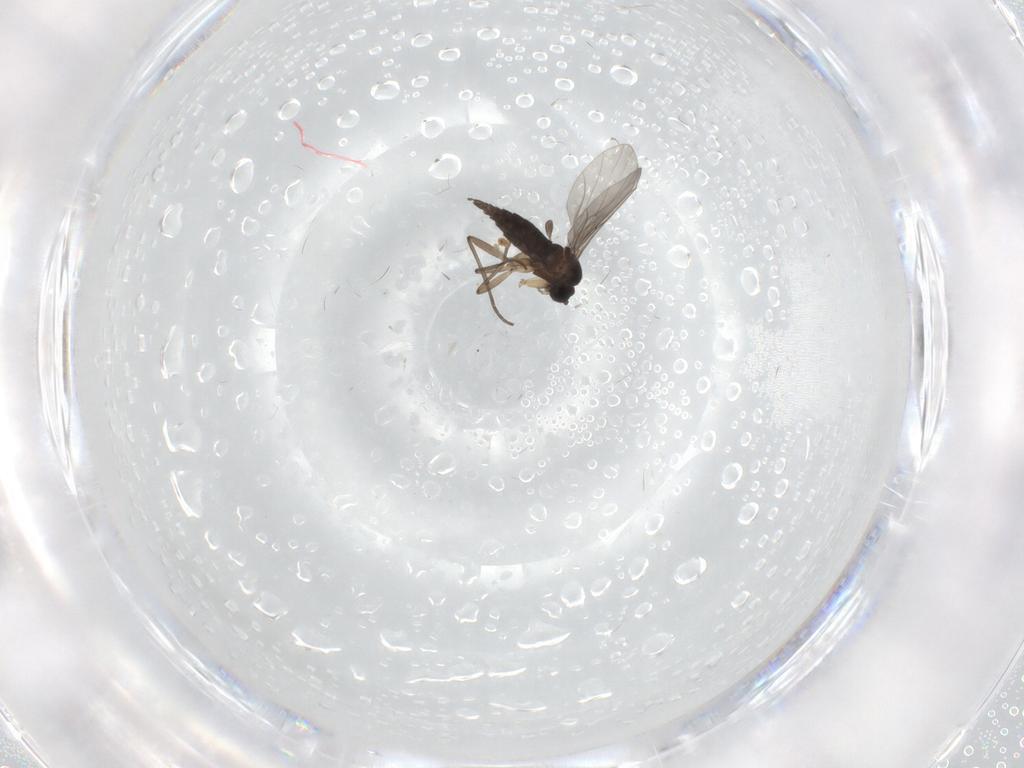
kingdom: Animalia
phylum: Arthropoda
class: Insecta
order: Diptera
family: Sciaridae
